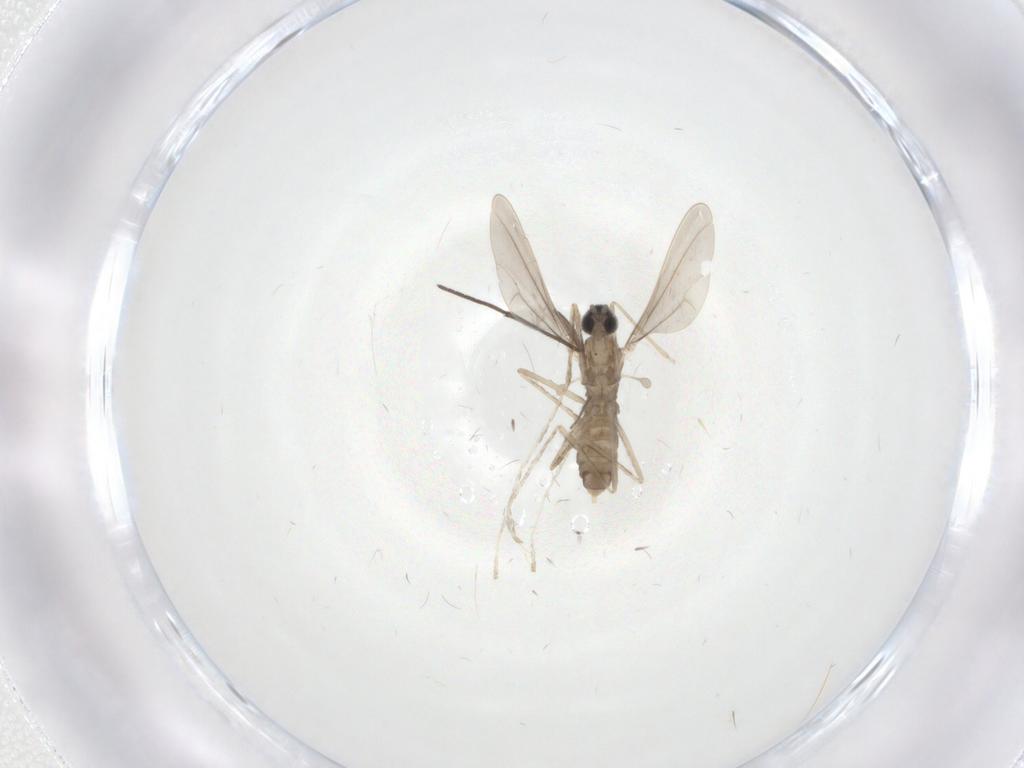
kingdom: Animalia
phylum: Arthropoda
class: Insecta
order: Diptera
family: Cecidomyiidae
